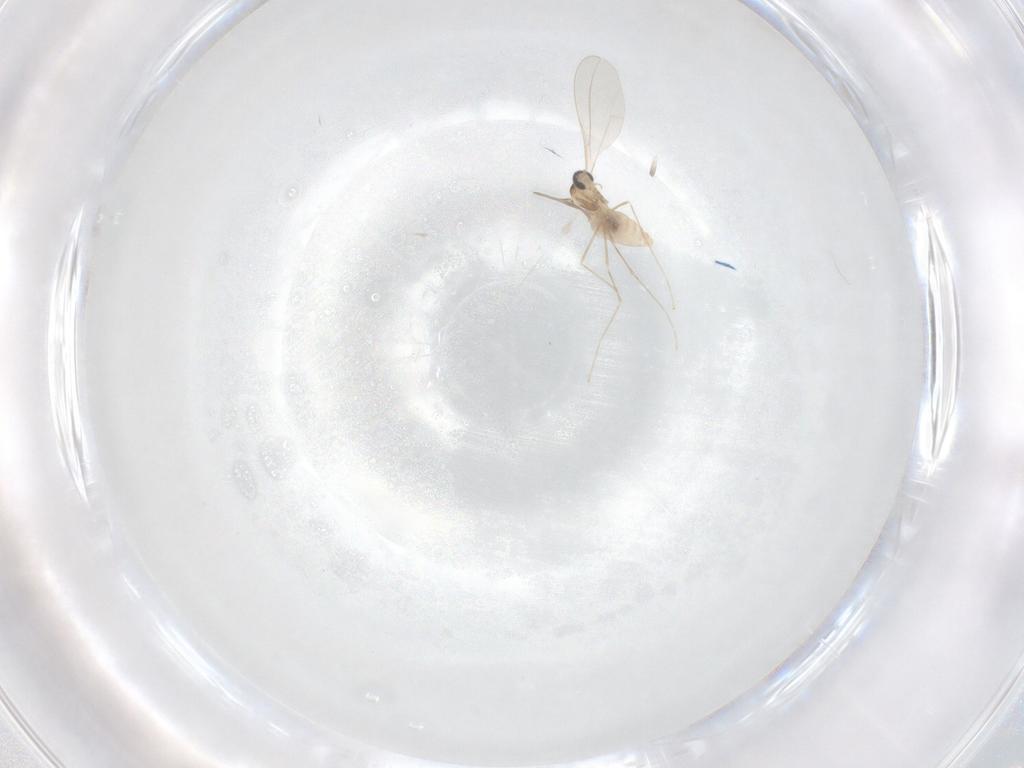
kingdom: Animalia
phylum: Arthropoda
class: Insecta
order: Diptera
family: Cecidomyiidae
